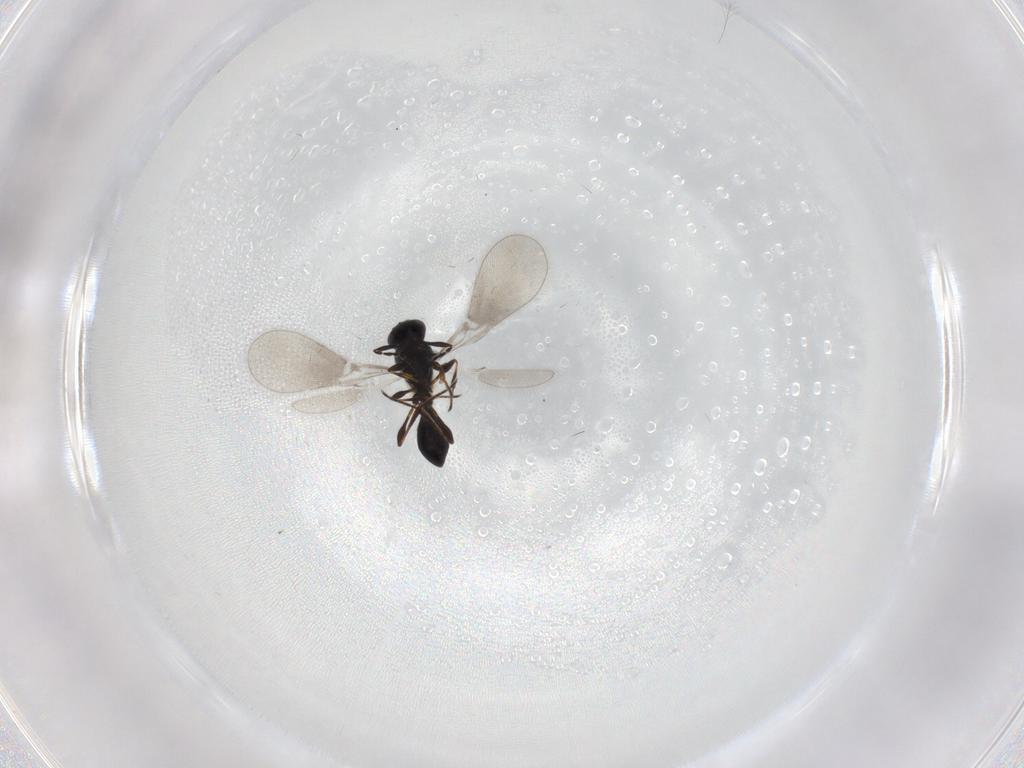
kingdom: Animalia
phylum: Arthropoda
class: Insecta
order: Hymenoptera
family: Platygastridae
